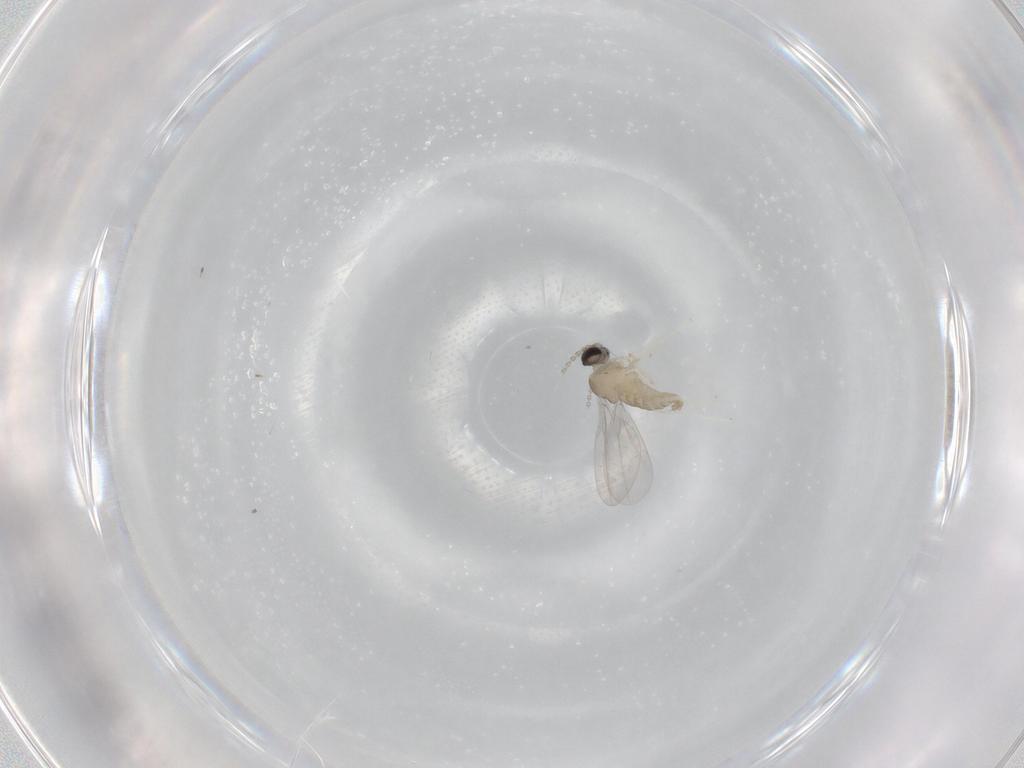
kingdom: Animalia
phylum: Arthropoda
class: Insecta
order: Diptera
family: Cecidomyiidae
